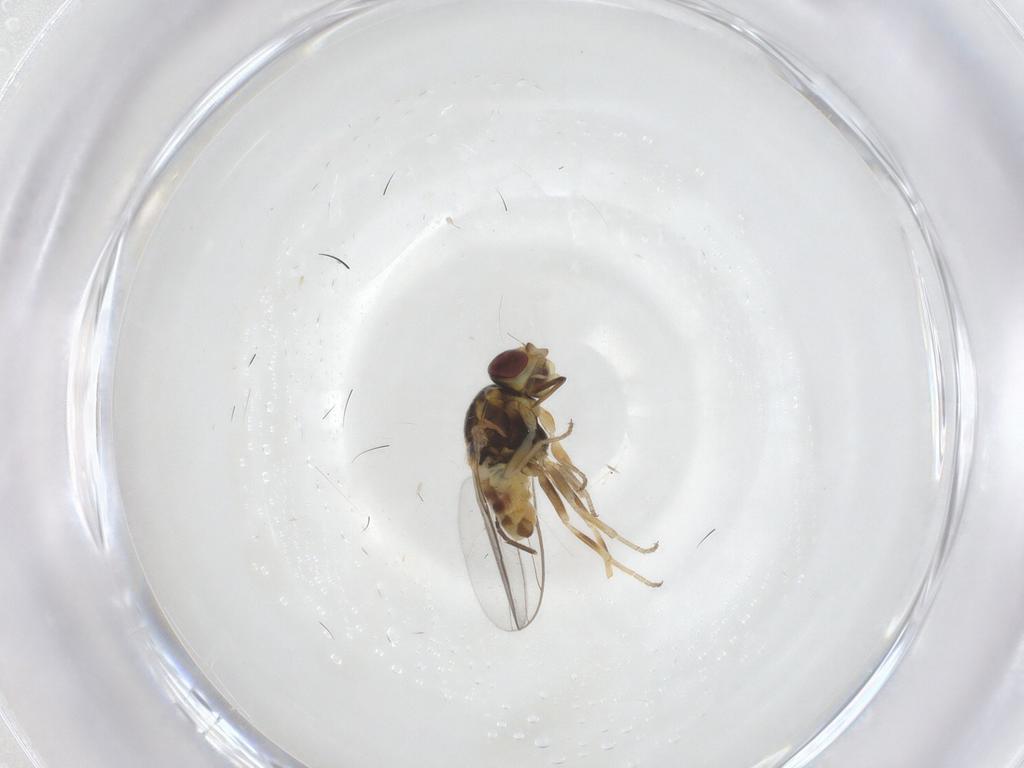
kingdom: Animalia
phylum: Arthropoda
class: Insecta
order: Diptera
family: Chloropidae
